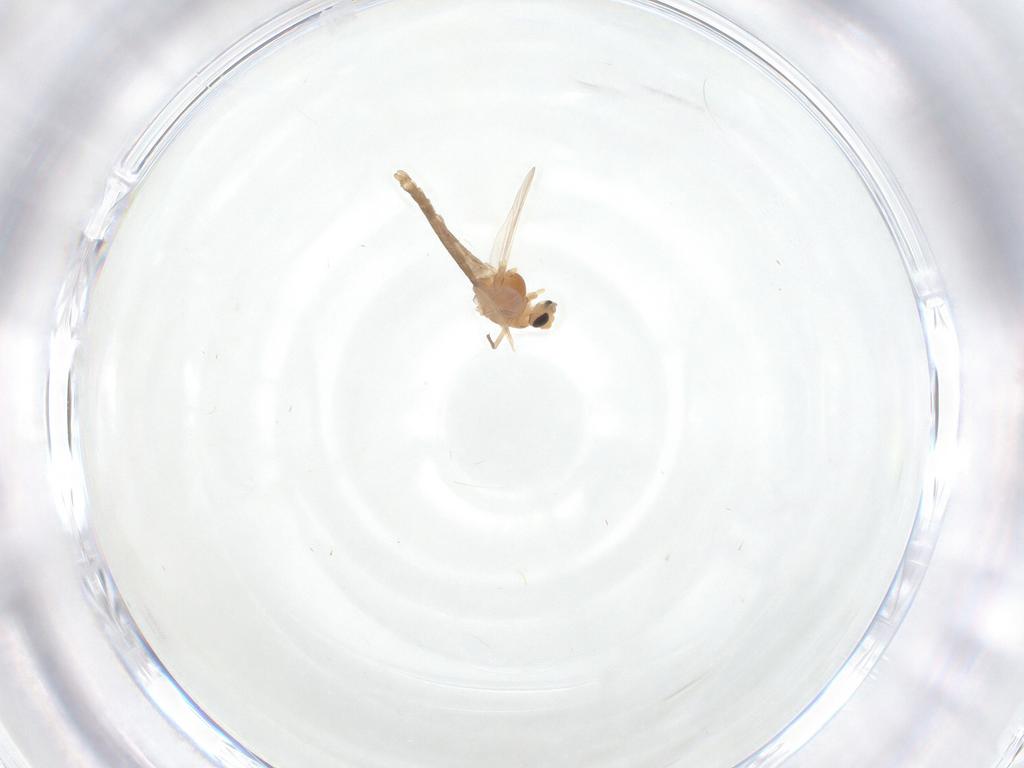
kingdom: Animalia
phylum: Arthropoda
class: Insecta
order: Diptera
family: Chironomidae
